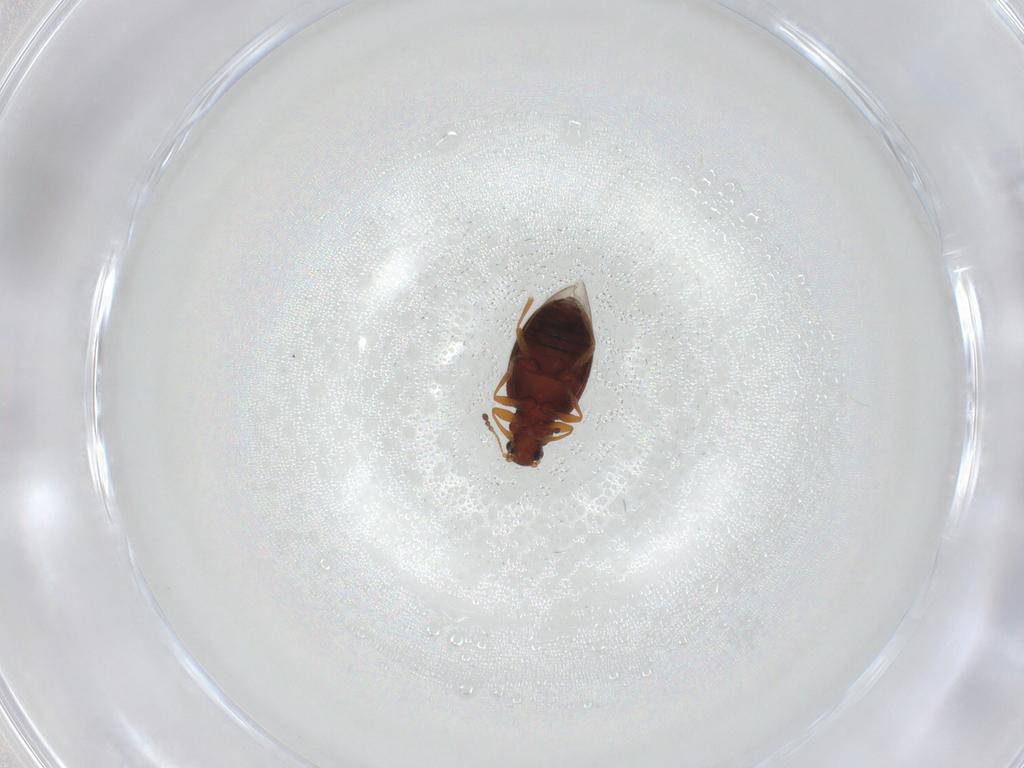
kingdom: Animalia
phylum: Arthropoda
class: Insecta
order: Coleoptera
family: Latridiidae
